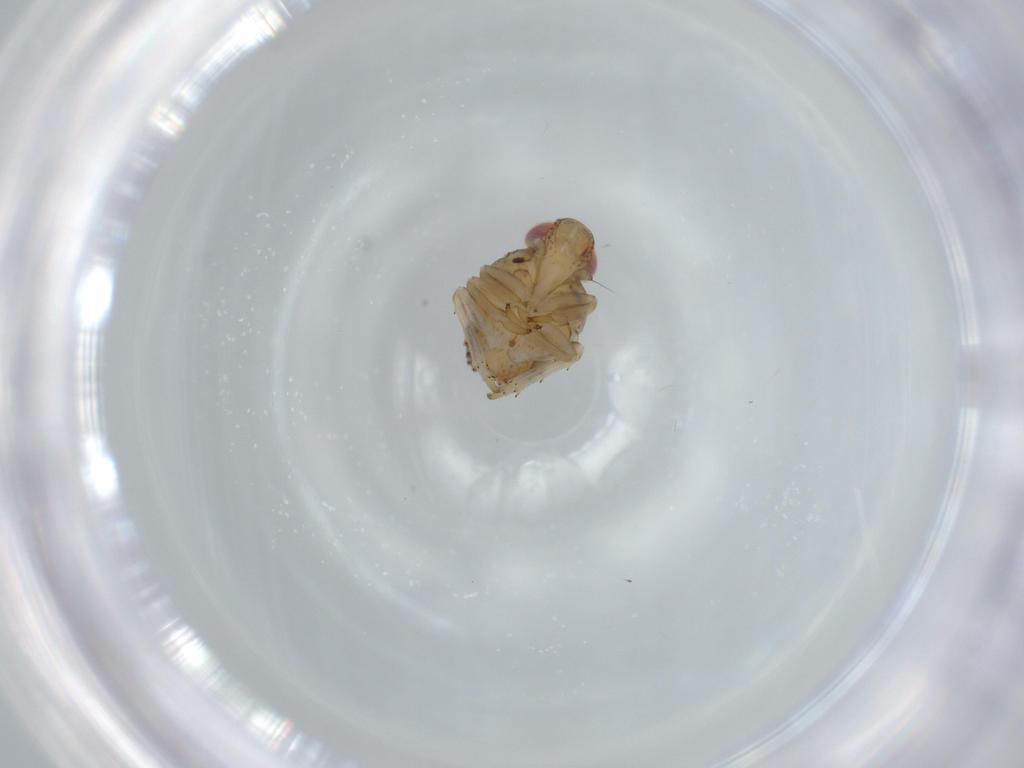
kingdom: Animalia
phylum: Arthropoda
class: Insecta
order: Hemiptera
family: Issidae
